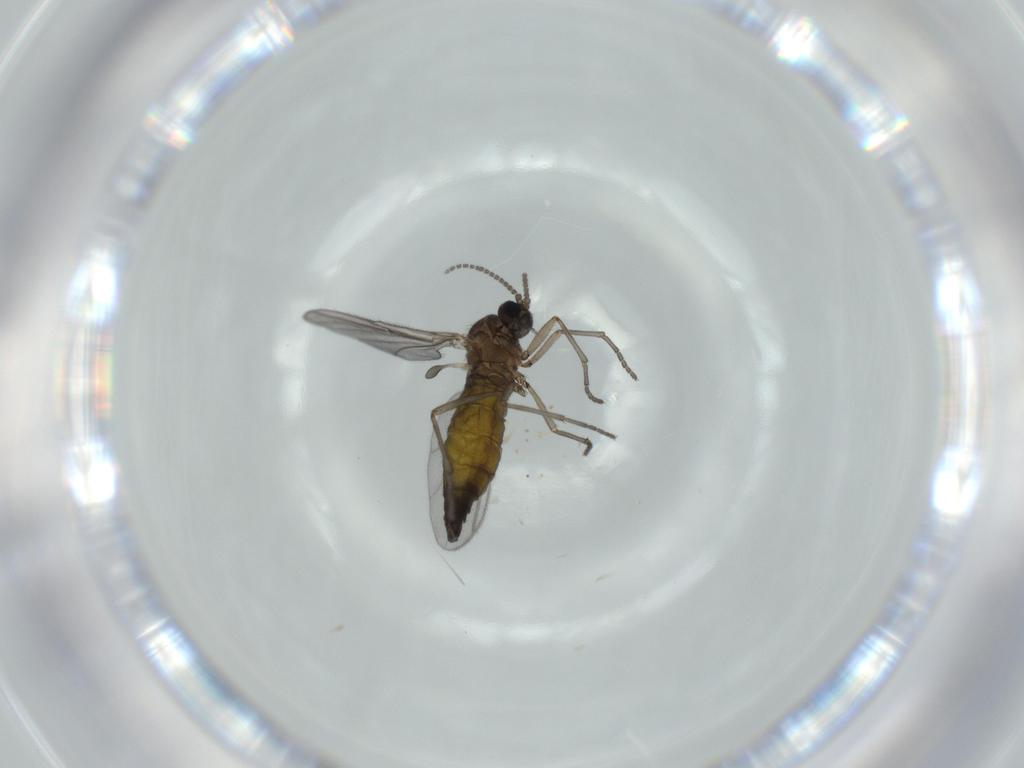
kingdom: Animalia
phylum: Arthropoda
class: Insecta
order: Diptera
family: Sciaridae
